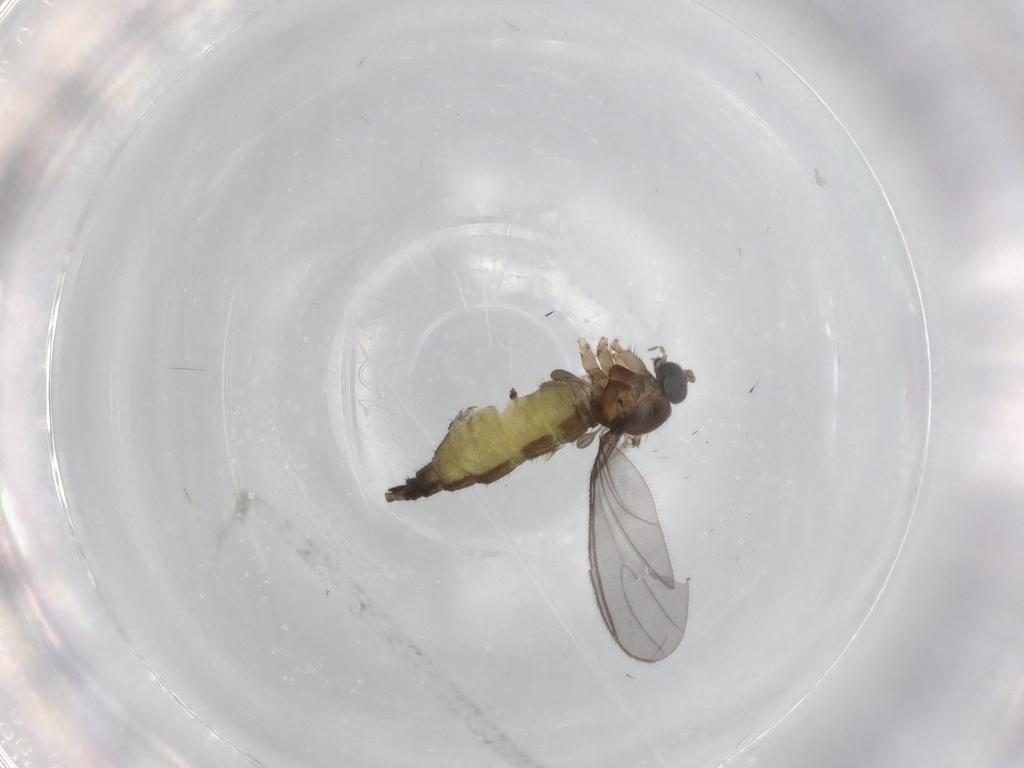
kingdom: Animalia
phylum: Arthropoda
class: Insecta
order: Diptera
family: Sciaridae
